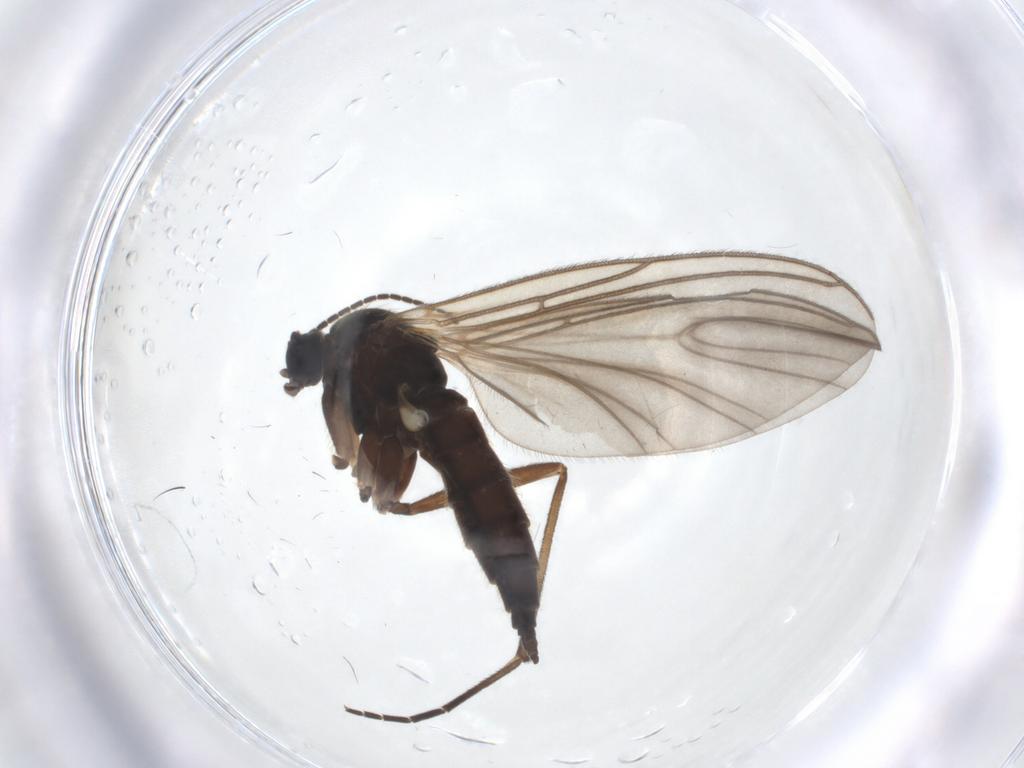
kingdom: Animalia
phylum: Arthropoda
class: Insecta
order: Diptera
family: Sciaridae
